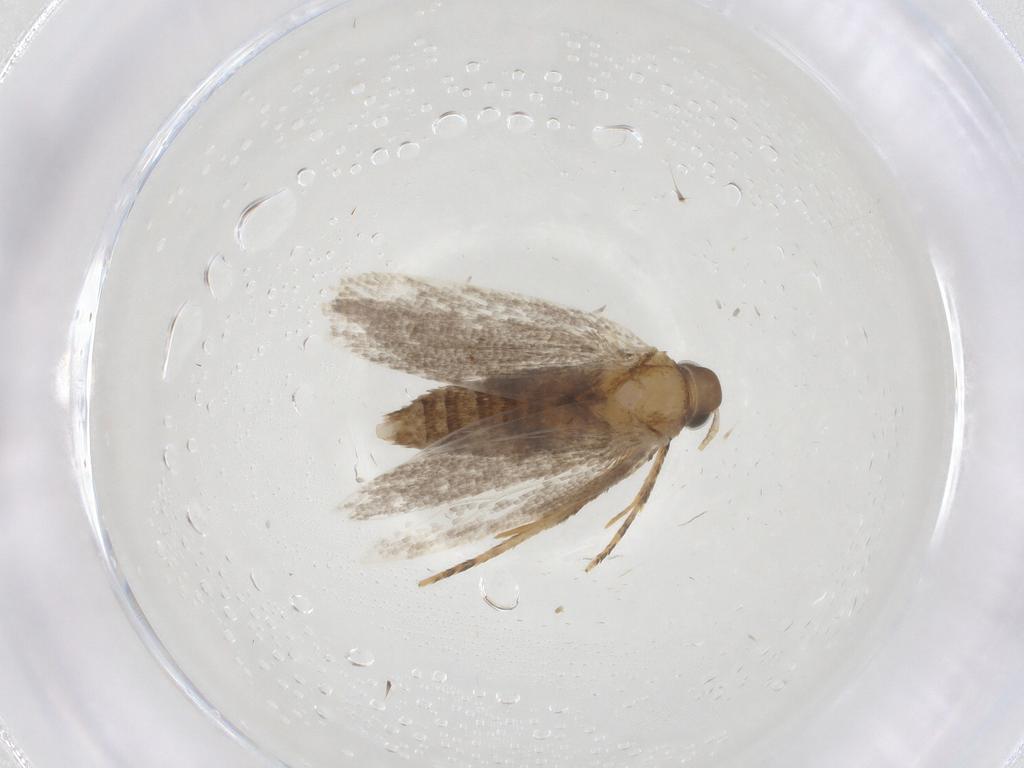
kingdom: Animalia
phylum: Arthropoda
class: Insecta
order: Lepidoptera
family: Oecophoridae
